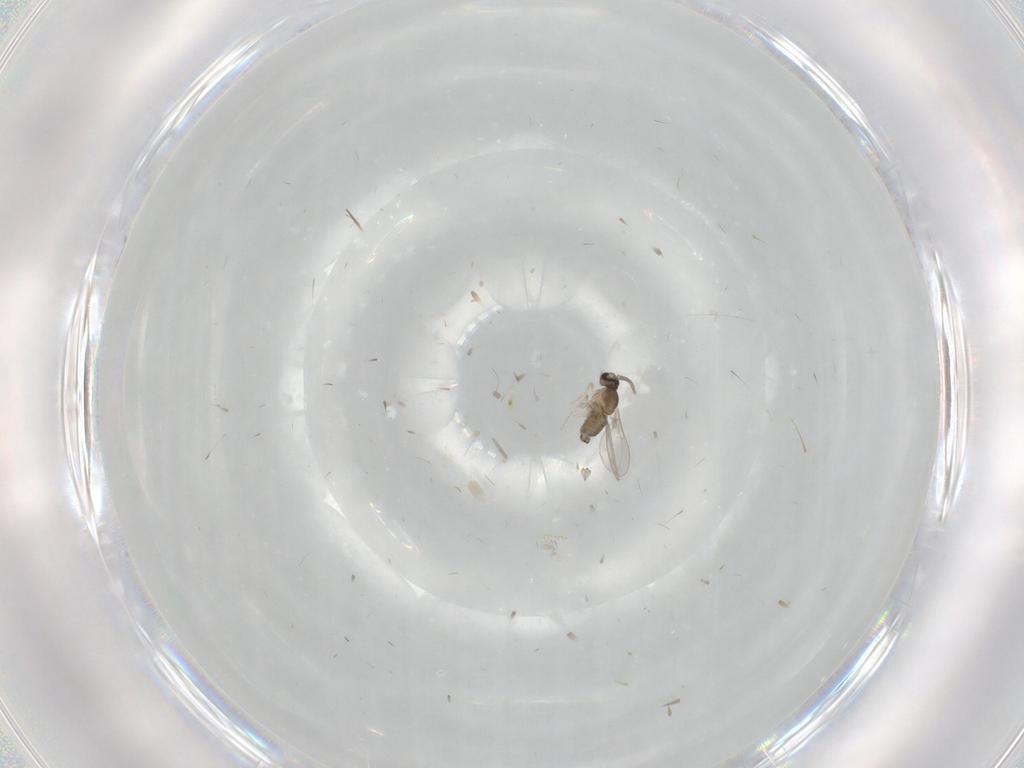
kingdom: Animalia
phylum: Arthropoda
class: Insecta
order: Diptera
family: Cecidomyiidae
